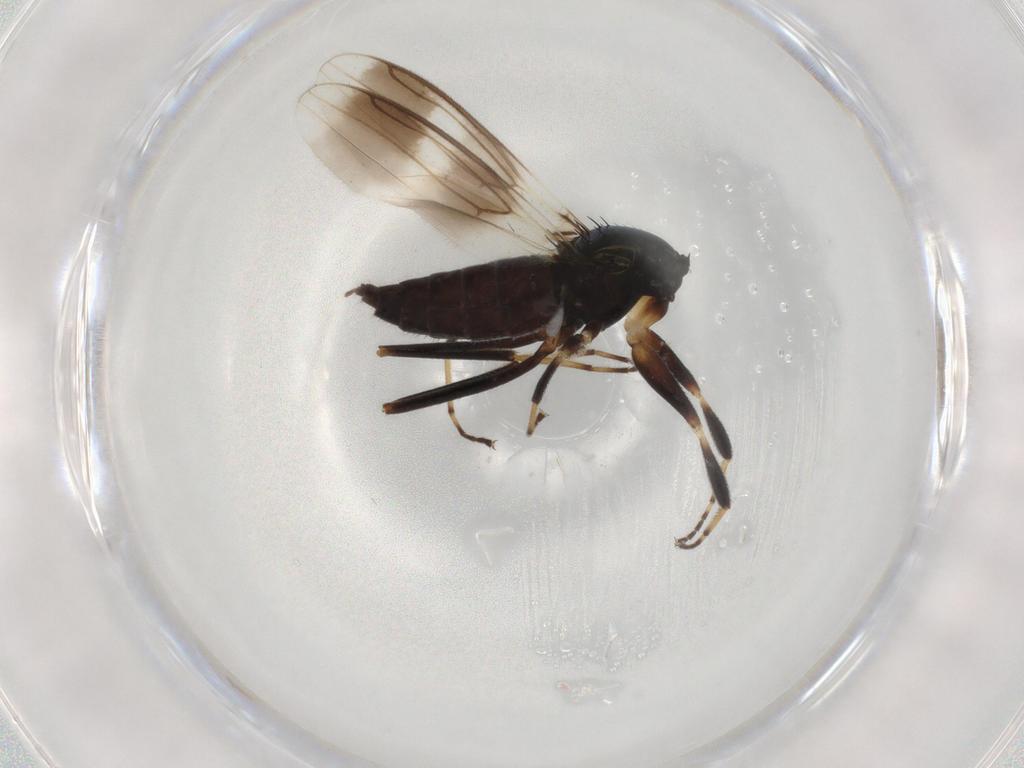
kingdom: Animalia
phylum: Arthropoda
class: Insecta
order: Diptera
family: Hybotidae
